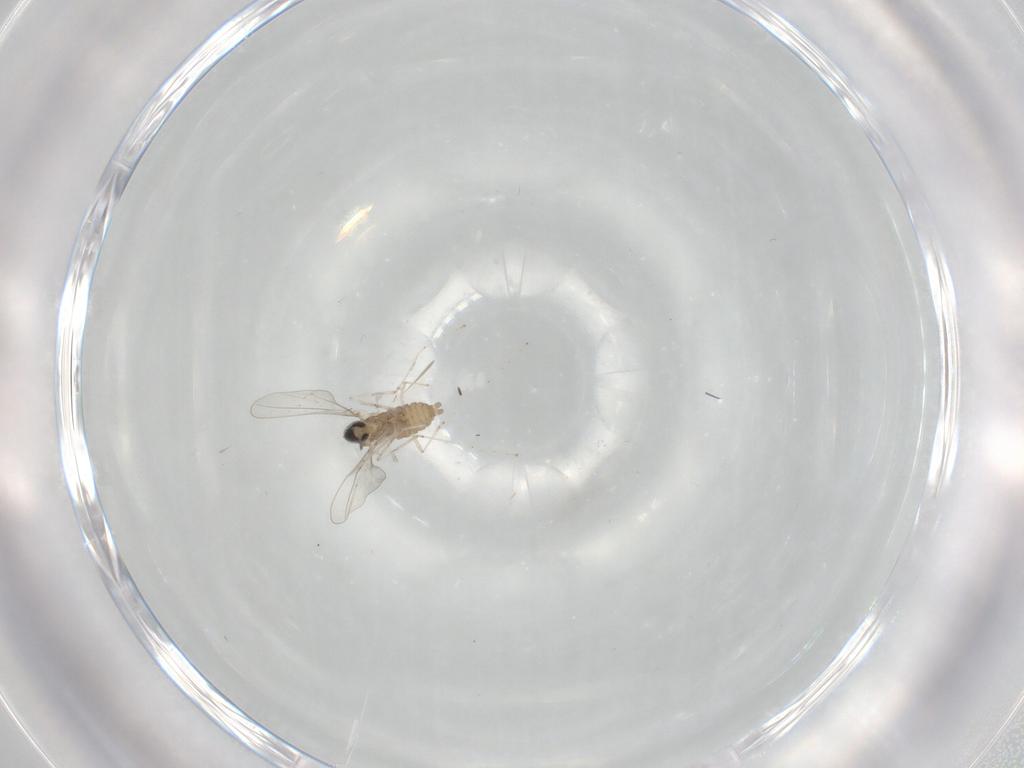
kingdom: Animalia
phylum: Arthropoda
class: Insecta
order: Diptera
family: Cecidomyiidae
